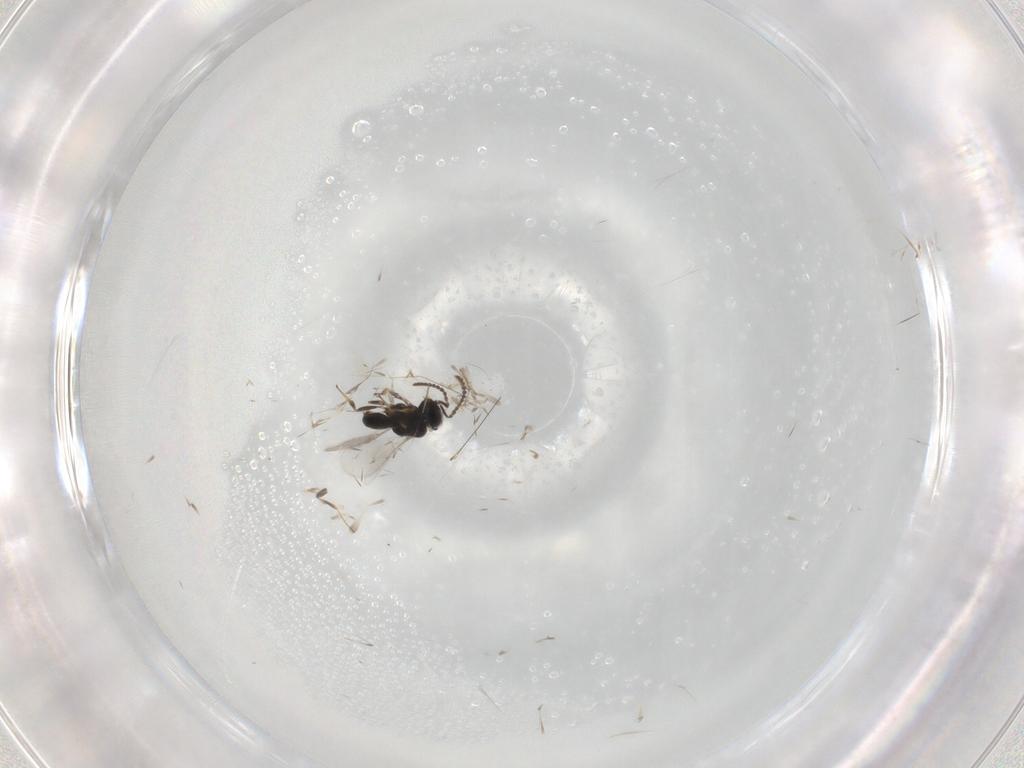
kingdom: Animalia
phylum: Arthropoda
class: Insecta
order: Hymenoptera
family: Scelionidae
